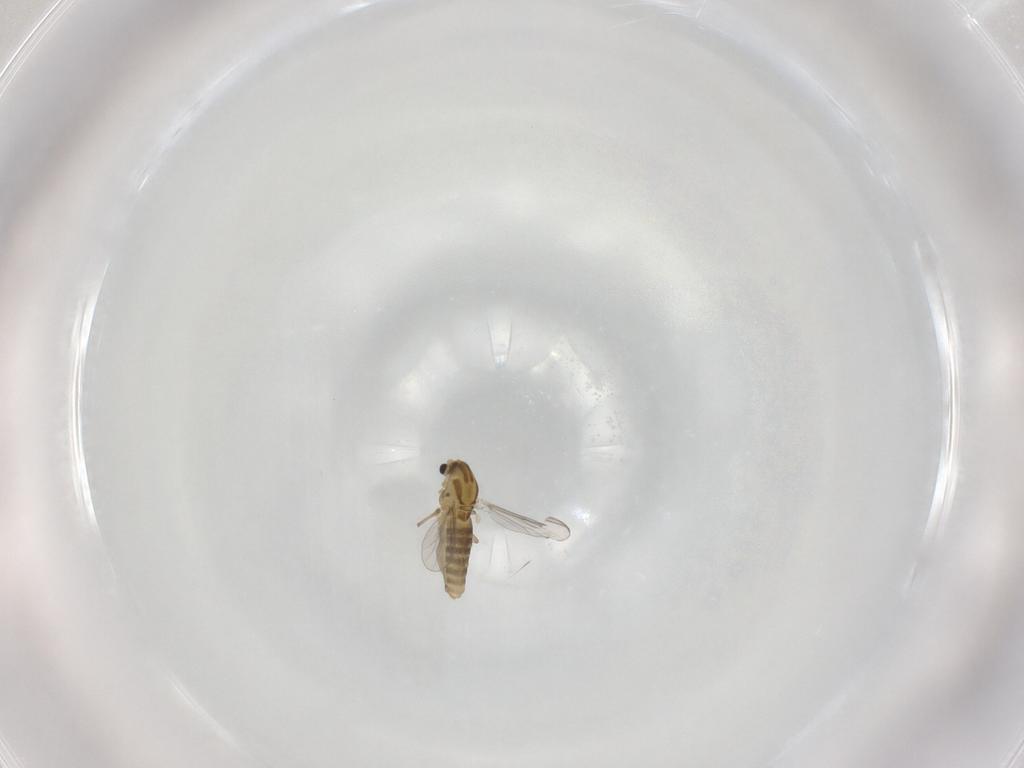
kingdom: Animalia
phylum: Arthropoda
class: Insecta
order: Diptera
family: Chironomidae
